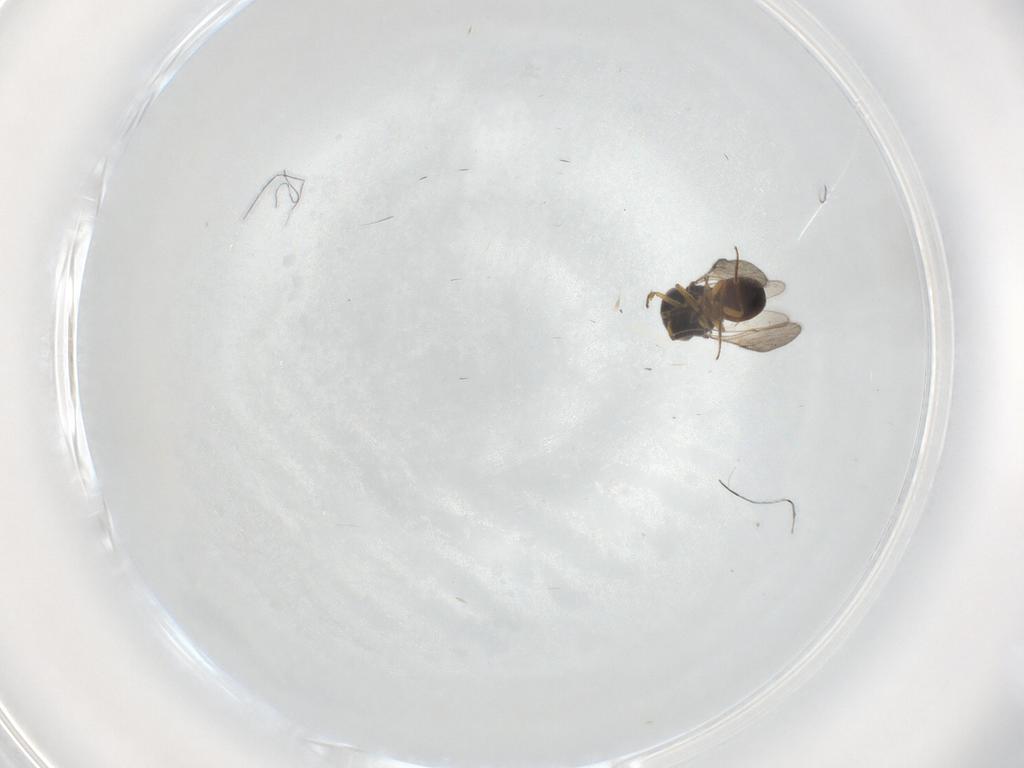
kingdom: Animalia
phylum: Arthropoda
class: Insecta
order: Hymenoptera
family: Scelionidae
